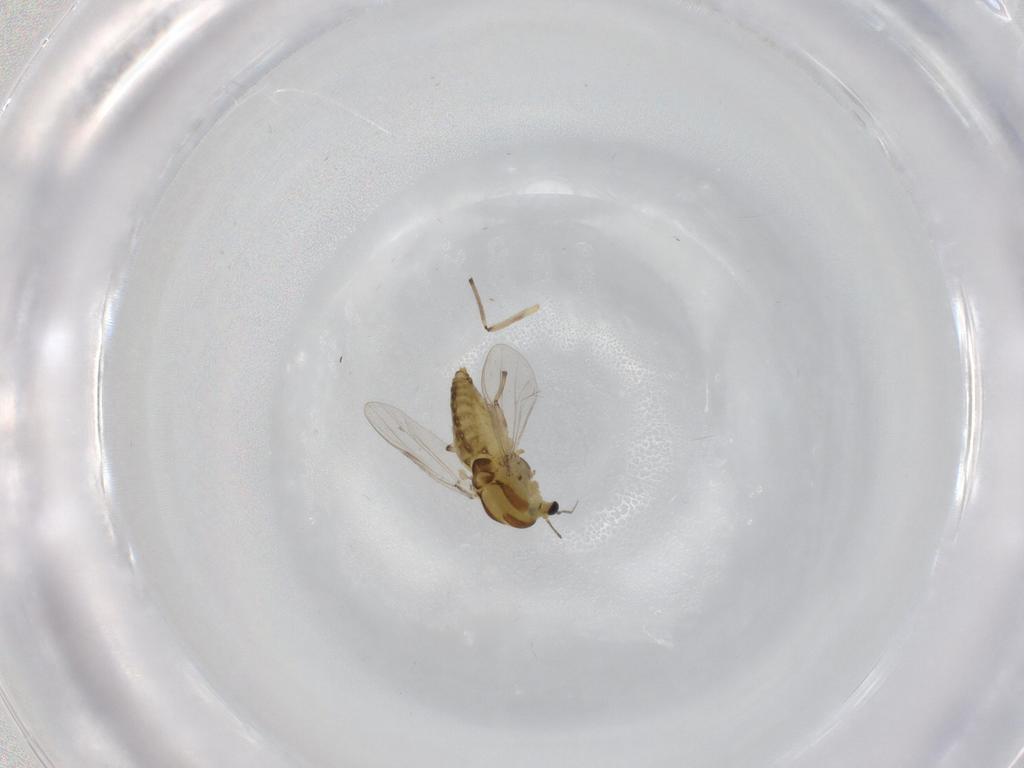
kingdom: Animalia
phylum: Arthropoda
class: Insecta
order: Diptera
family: Chironomidae
